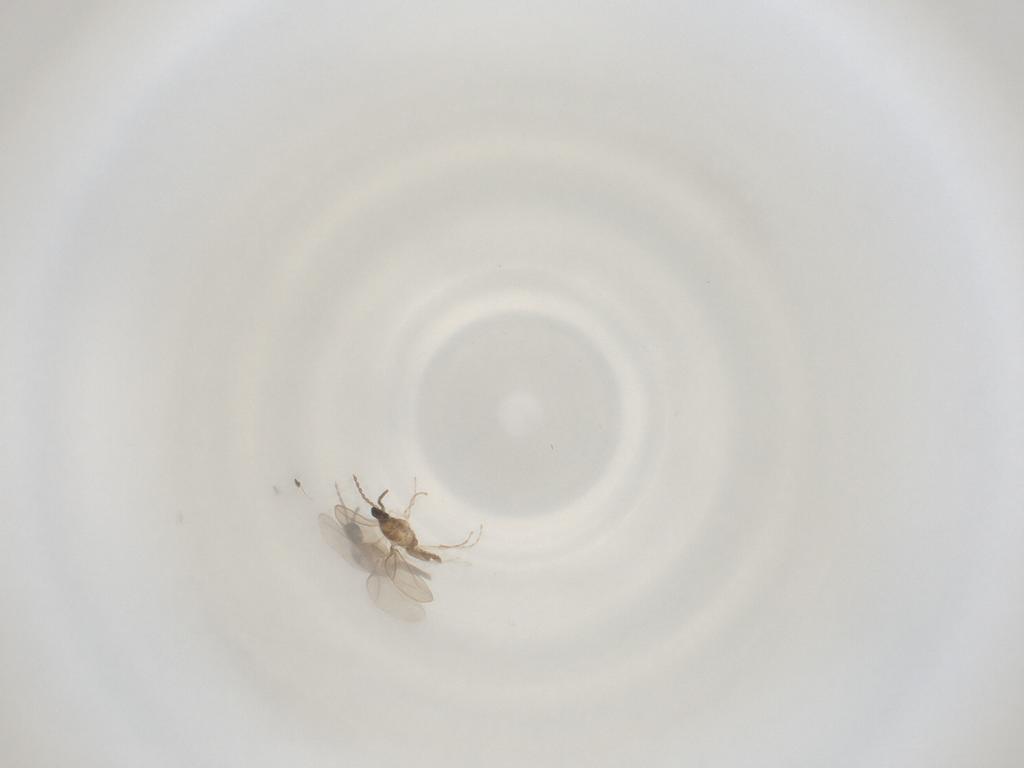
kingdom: Animalia
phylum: Arthropoda
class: Insecta
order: Diptera
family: Cecidomyiidae
